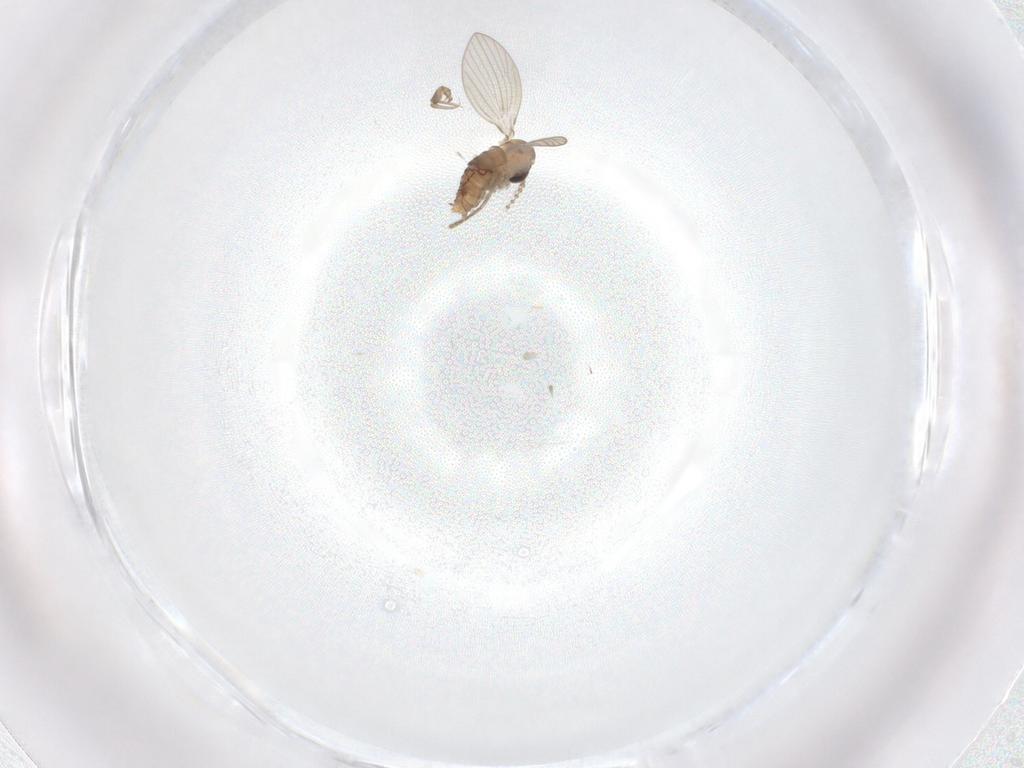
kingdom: Animalia
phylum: Arthropoda
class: Insecta
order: Diptera
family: Psychodidae
